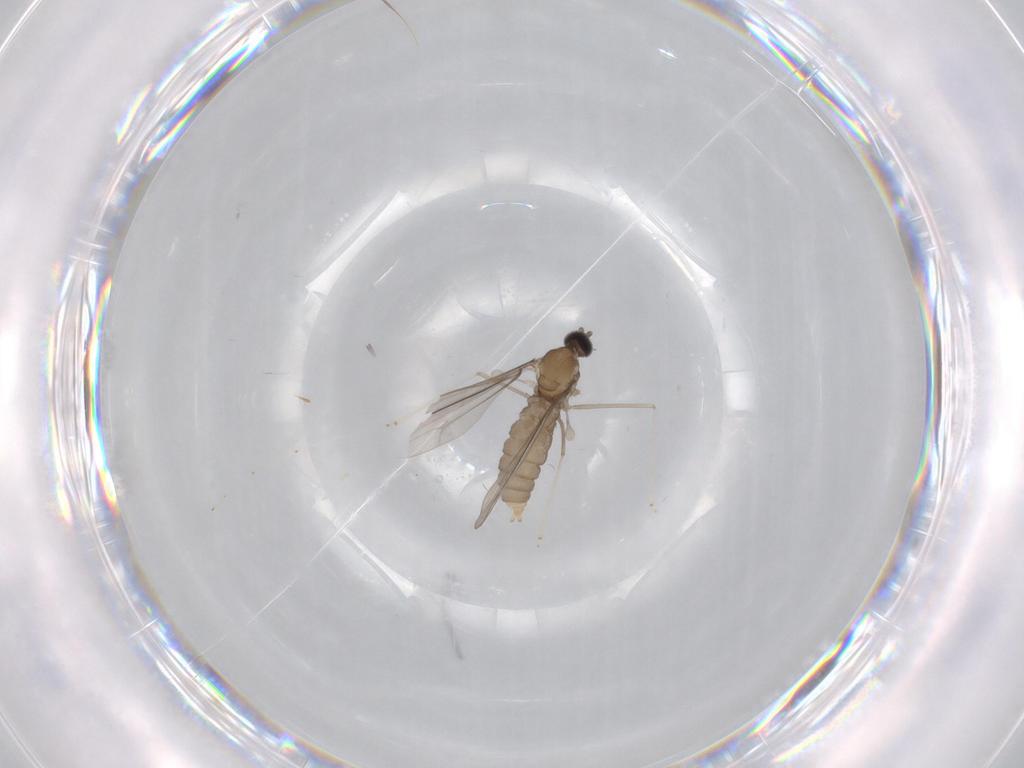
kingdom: Animalia
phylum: Arthropoda
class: Insecta
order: Diptera
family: Cecidomyiidae
